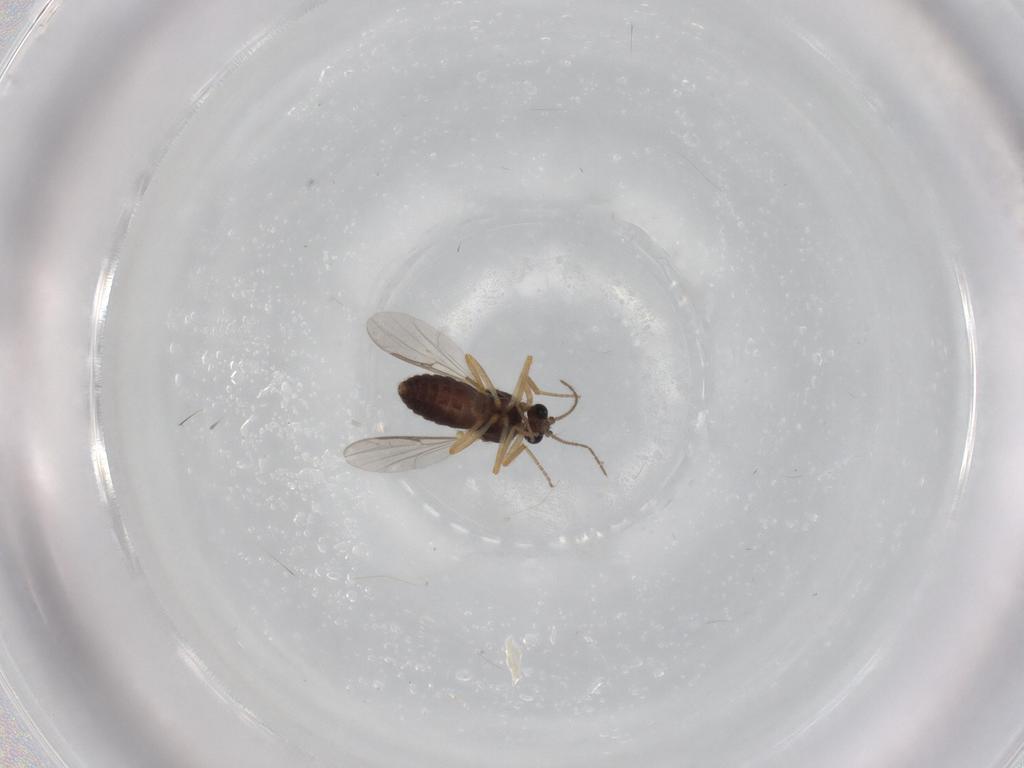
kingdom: Animalia
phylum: Arthropoda
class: Insecta
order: Diptera
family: Ceratopogonidae
